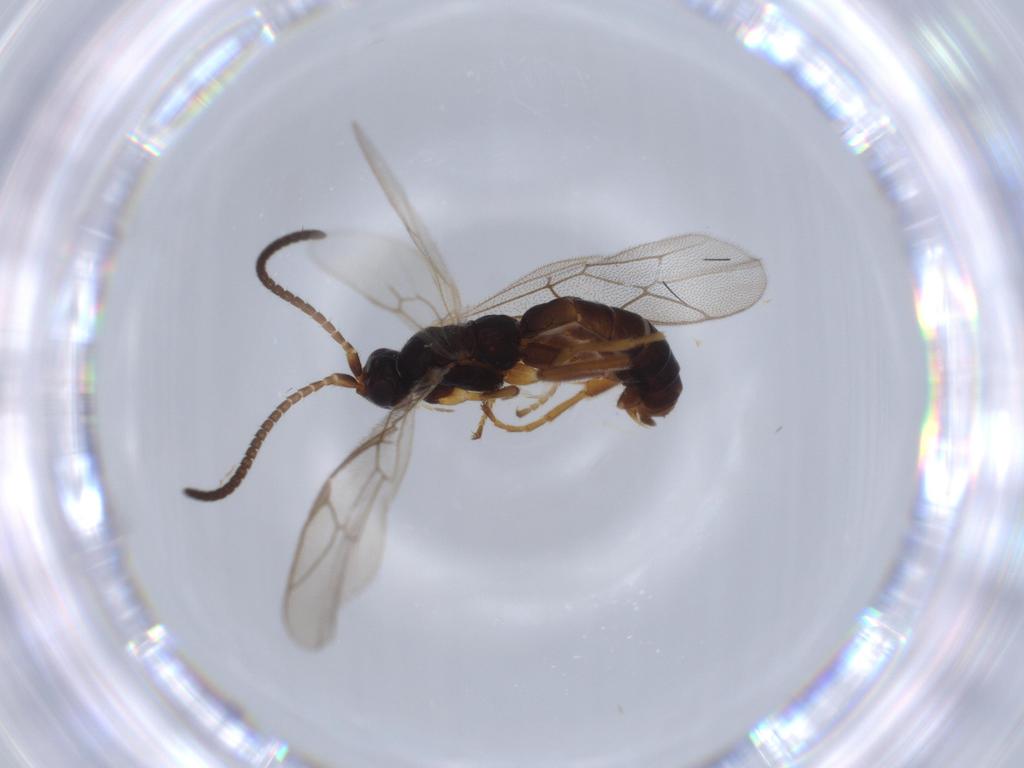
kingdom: Animalia
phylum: Arthropoda
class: Insecta
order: Hymenoptera
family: Ichneumonidae
